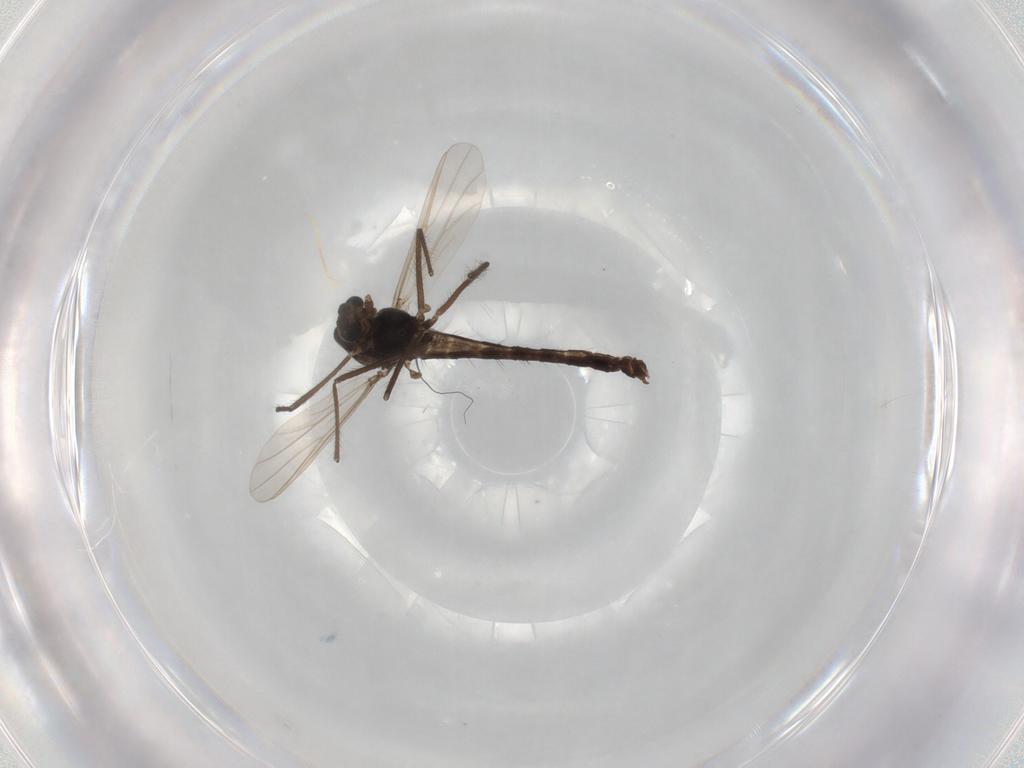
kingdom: Animalia
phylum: Arthropoda
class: Insecta
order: Diptera
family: Chironomidae
